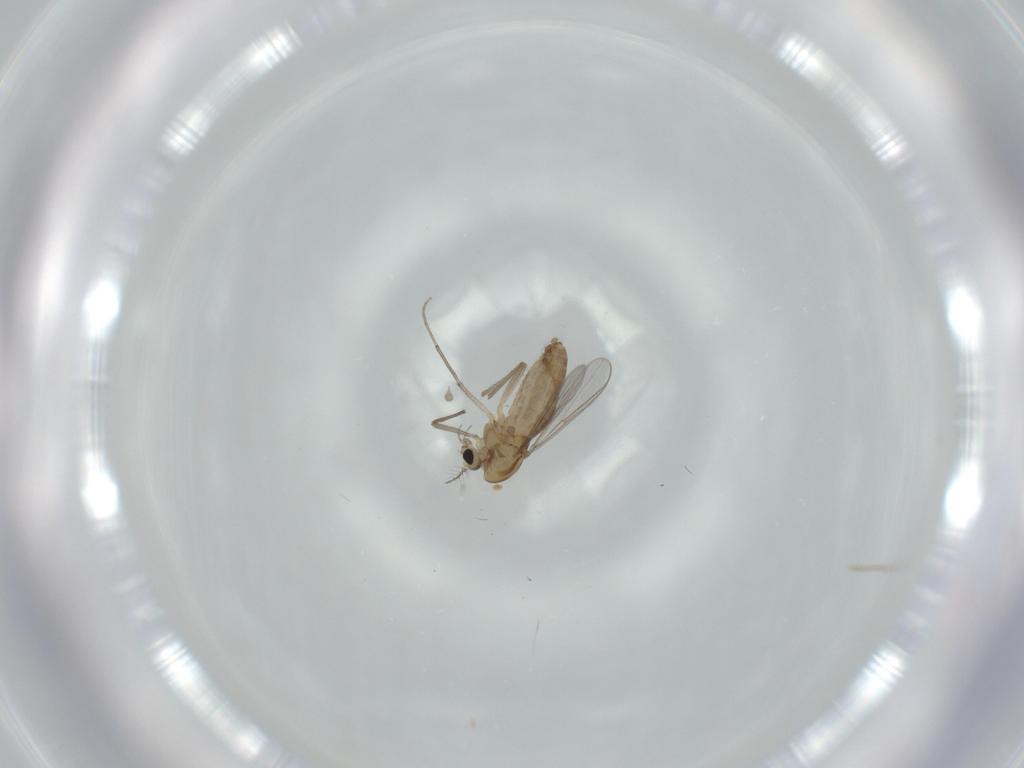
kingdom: Animalia
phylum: Arthropoda
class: Insecta
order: Diptera
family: Chironomidae
